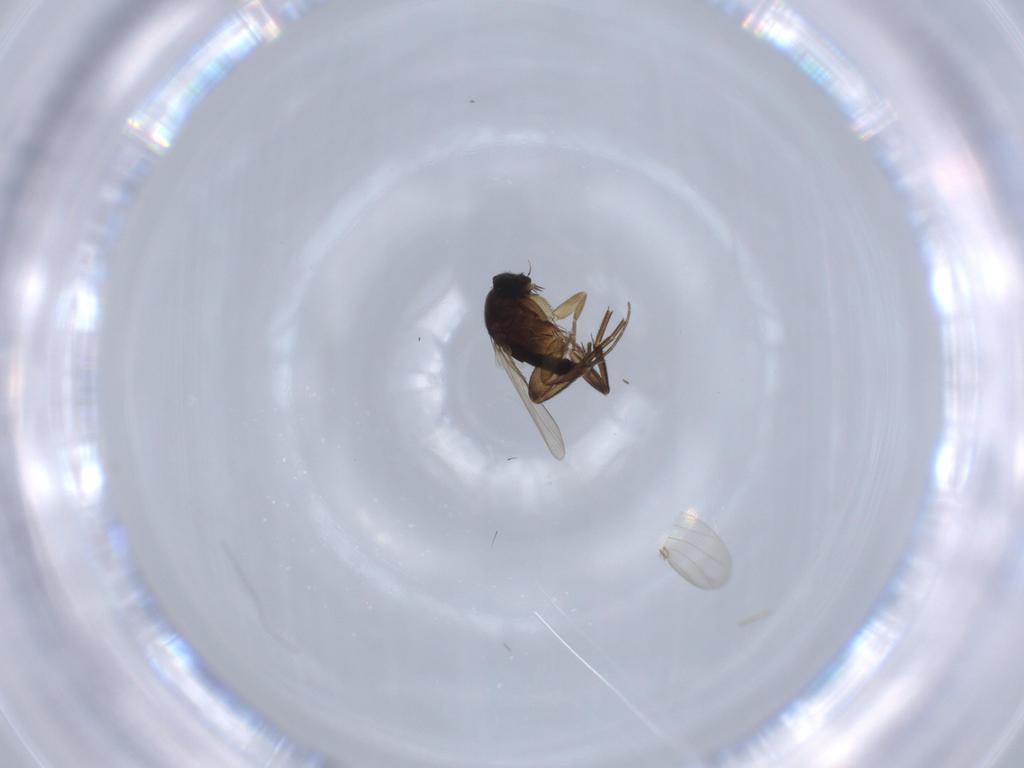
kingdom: Animalia
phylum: Arthropoda
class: Insecta
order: Diptera
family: Phoridae
